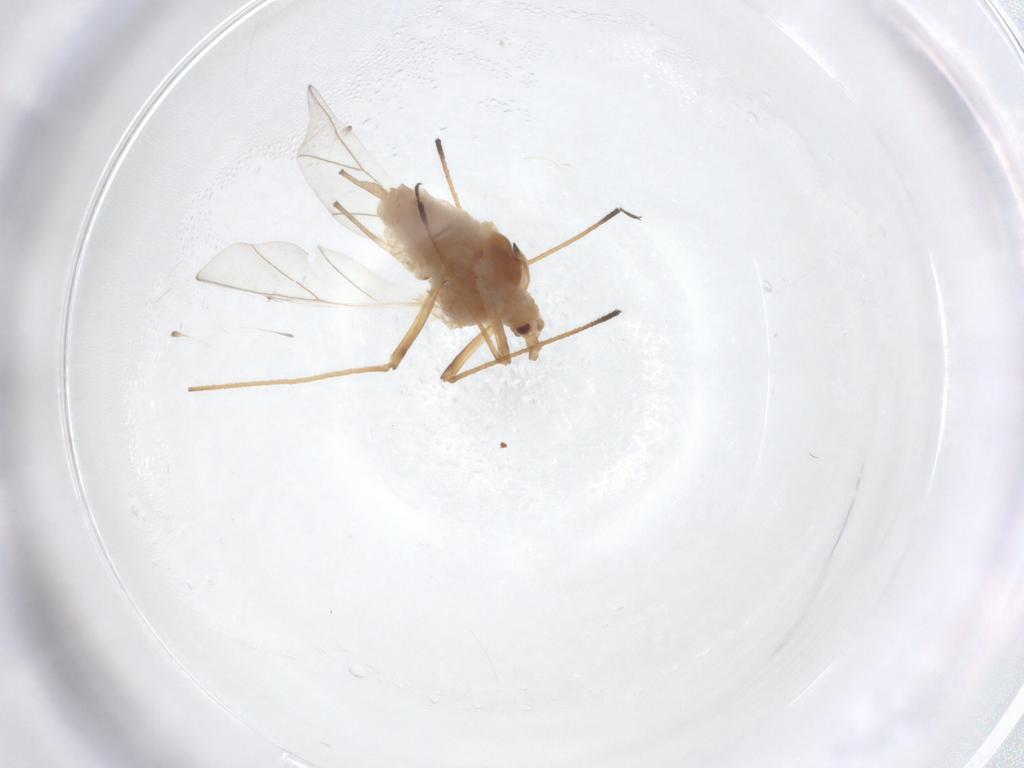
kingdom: Animalia
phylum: Arthropoda
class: Insecta
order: Hemiptera
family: Aphididae
